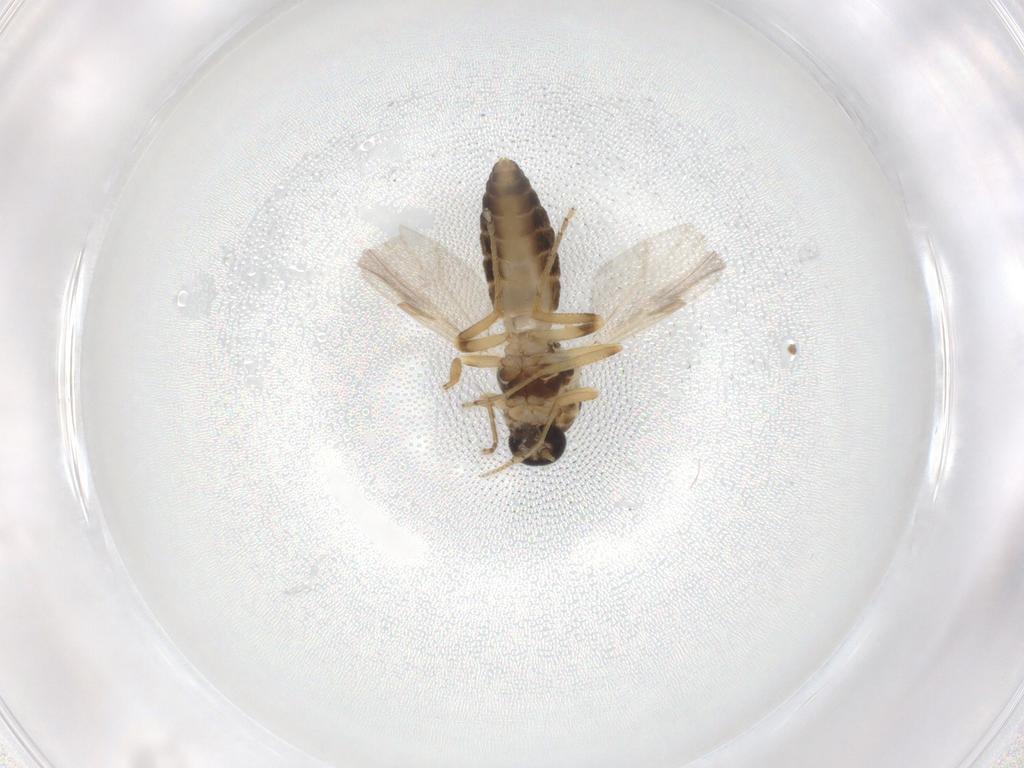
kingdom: Animalia
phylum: Arthropoda
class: Insecta
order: Diptera
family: Ceratopogonidae
